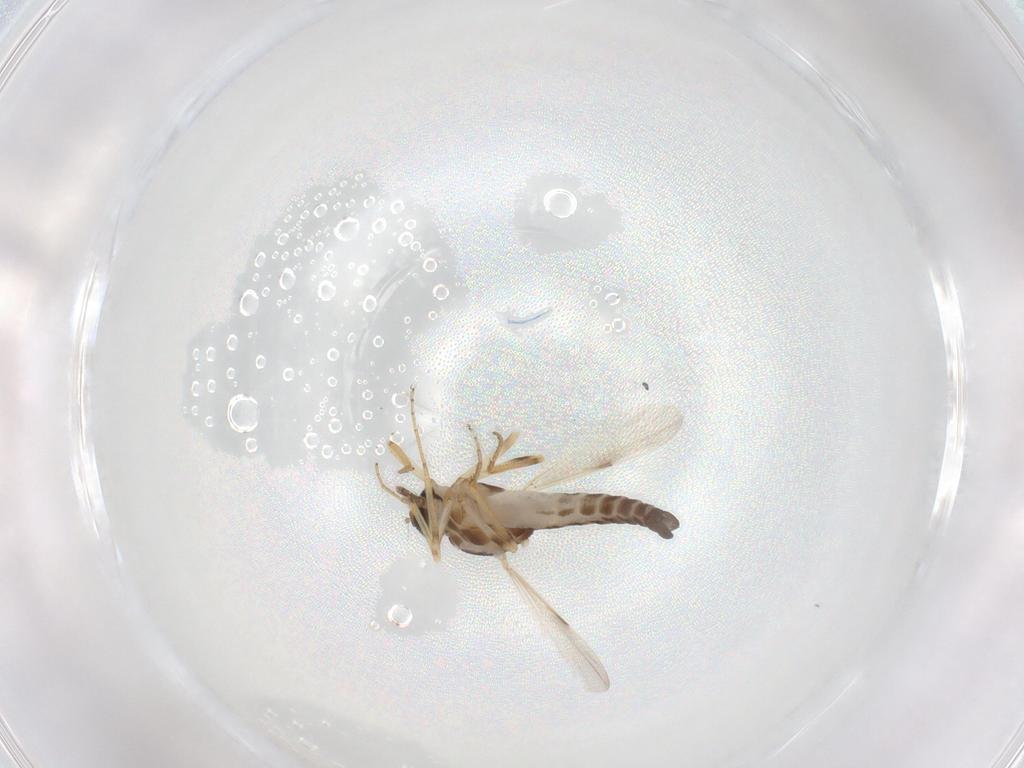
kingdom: Animalia
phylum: Arthropoda
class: Insecta
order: Diptera
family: Ceratopogonidae
